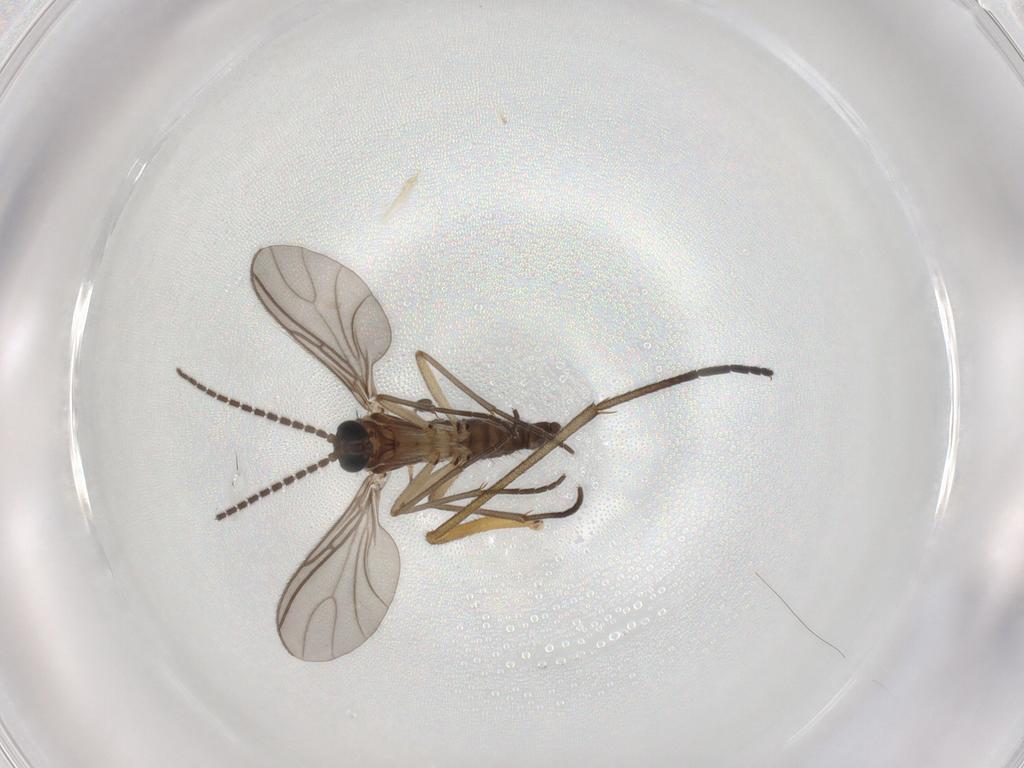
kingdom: Animalia
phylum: Arthropoda
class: Insecta
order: Diptera
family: Sciaridae
